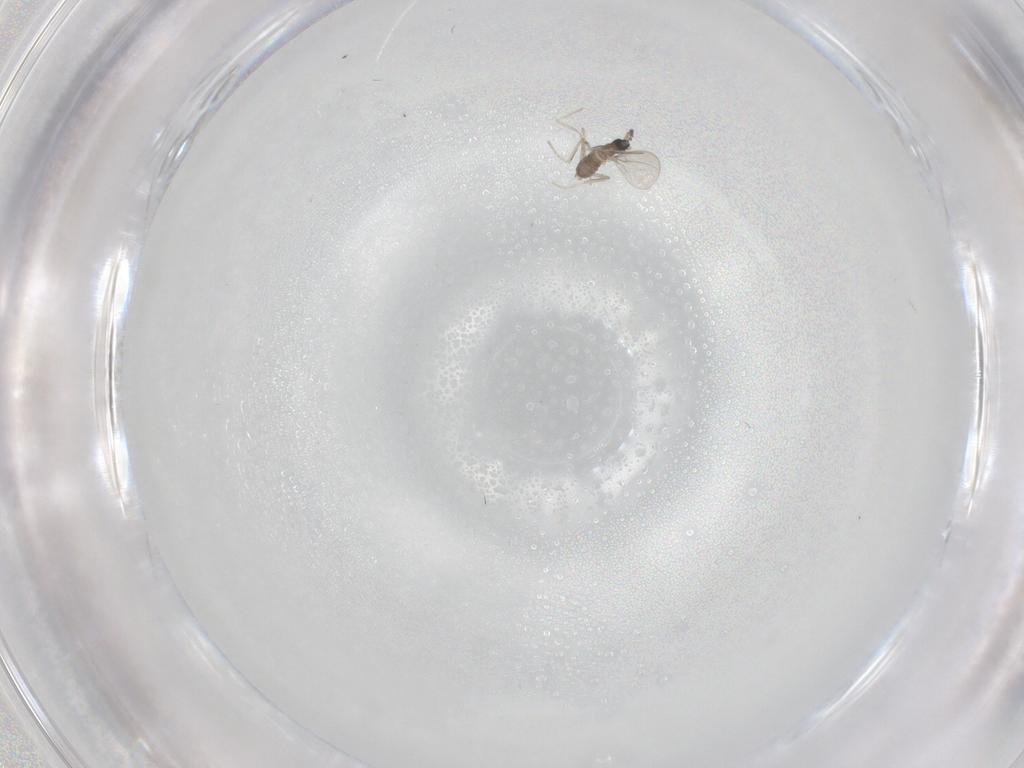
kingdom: Animalia
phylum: Arthropoda
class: Insecta
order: Diptera
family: Cecidomyiidae
